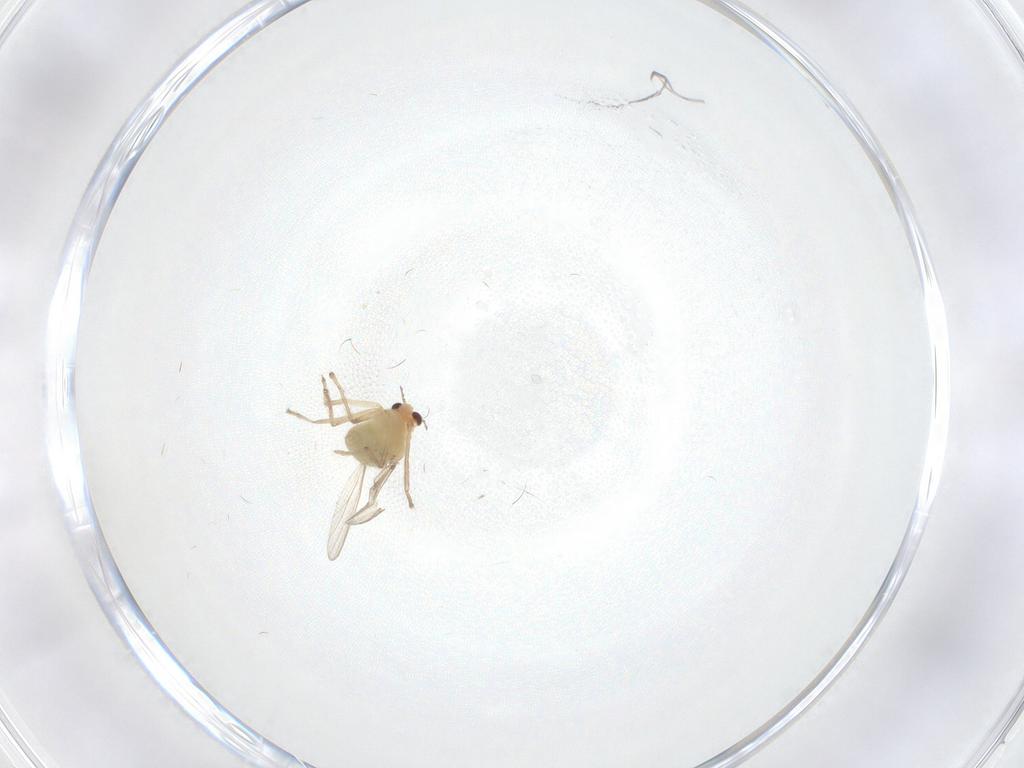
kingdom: Animalia
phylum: Arthropoda
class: Insecta
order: Diptera
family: Chironomidae
